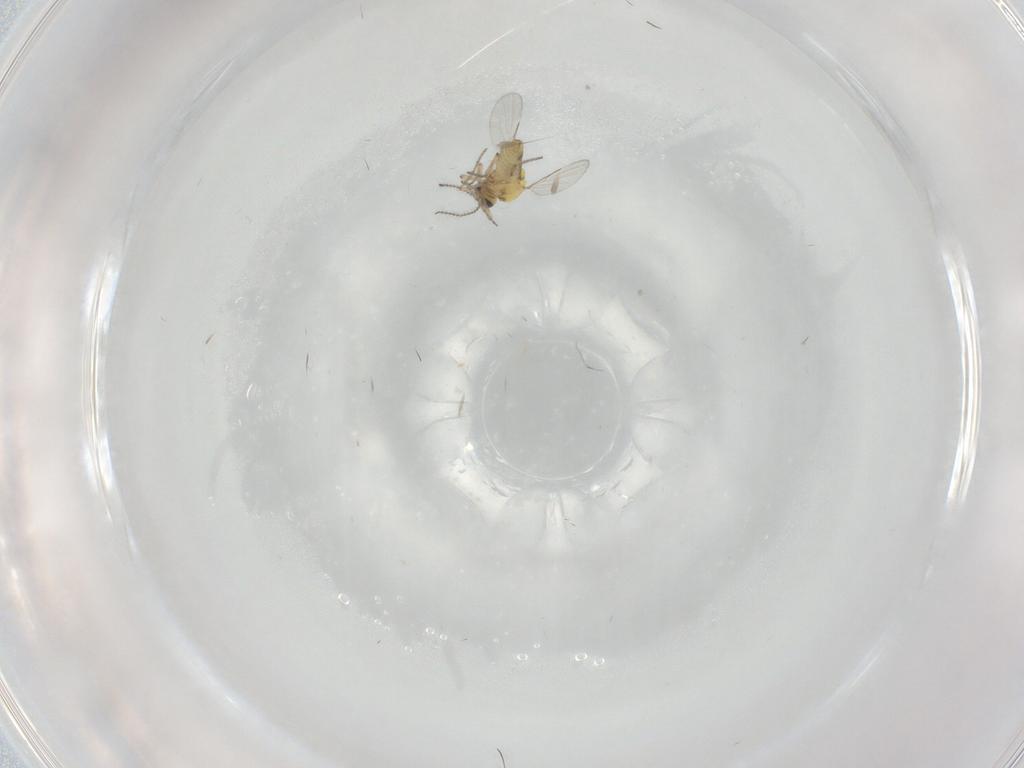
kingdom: Animalia
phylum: Arthropoda
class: Insecta
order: Diptera
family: Ceratopogonidae
